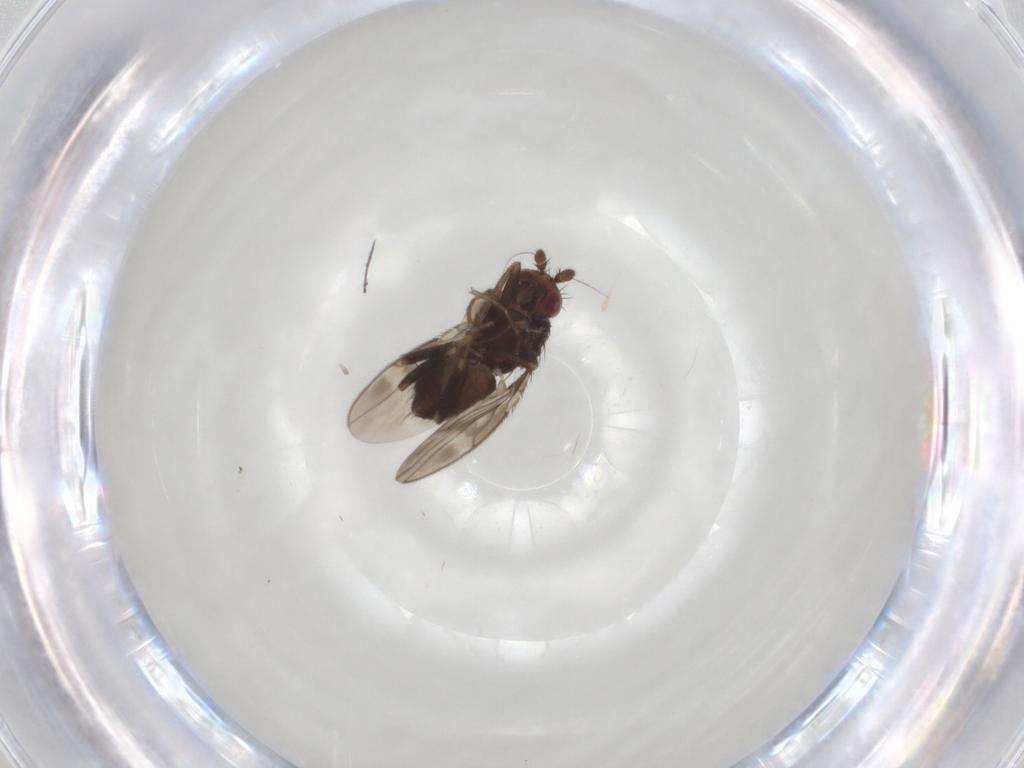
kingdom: Animalia
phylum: Arthropoda
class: Insecta
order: Diptera
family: Sphaeroceridae
